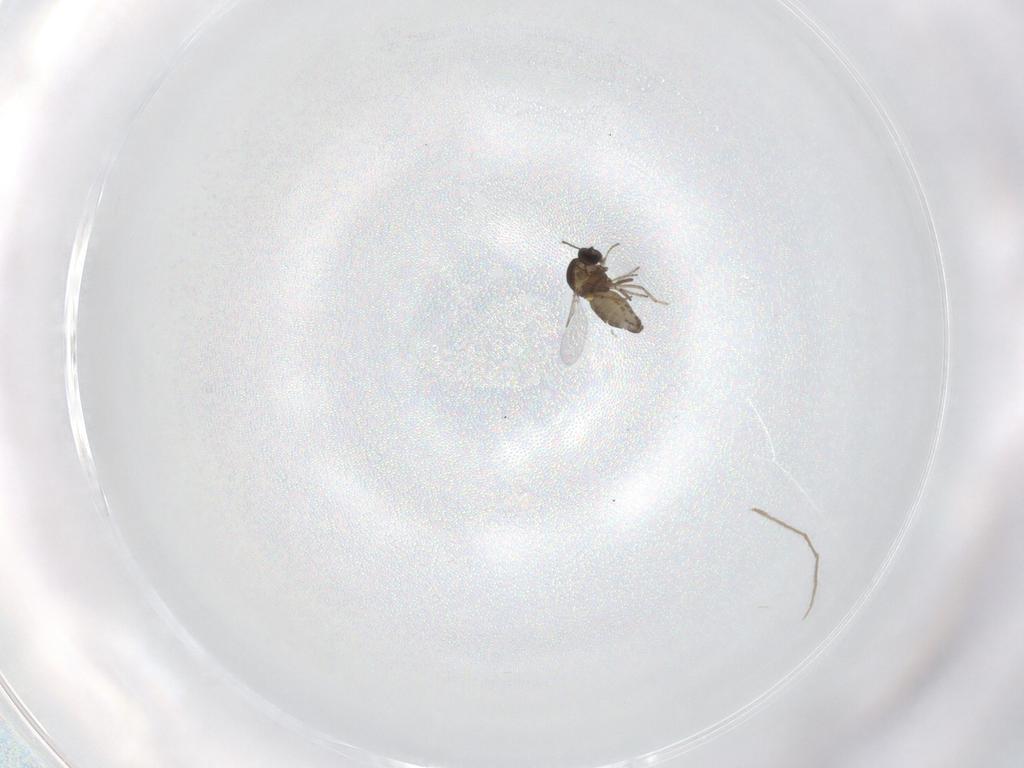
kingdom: Animalia
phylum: Arthropoda
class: Insecta
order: Diptera
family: Ceratopogonidae
